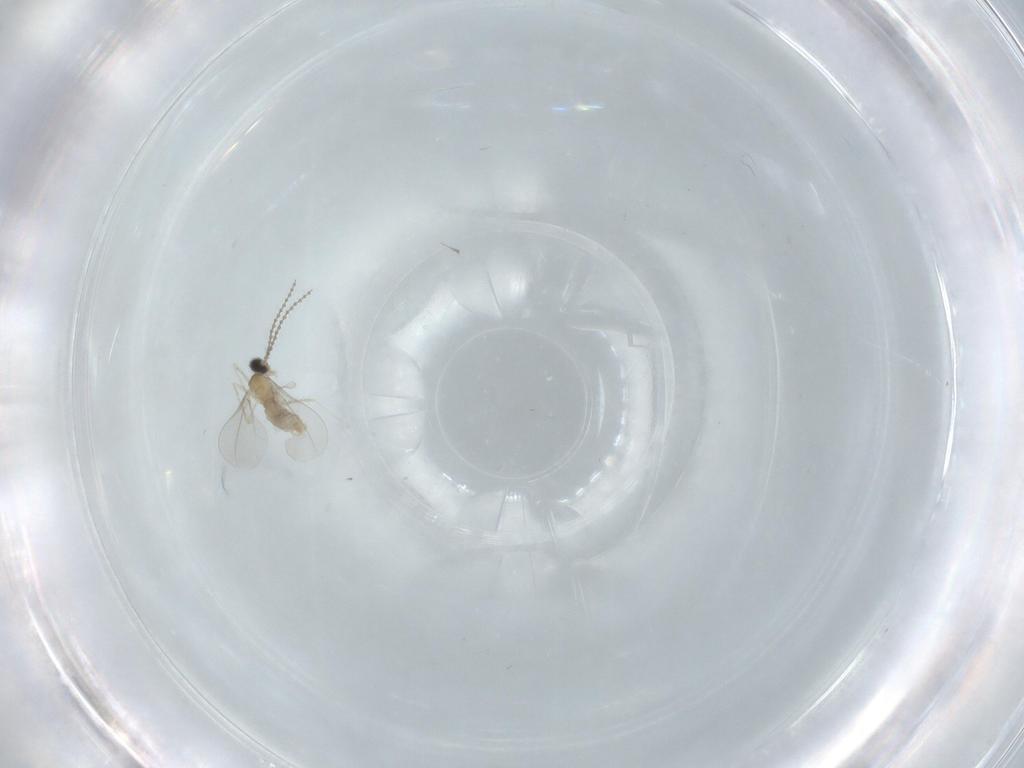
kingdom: Animalia
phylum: Arthropoda
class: Insecta
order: Diptera
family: Cecidomyiidae
